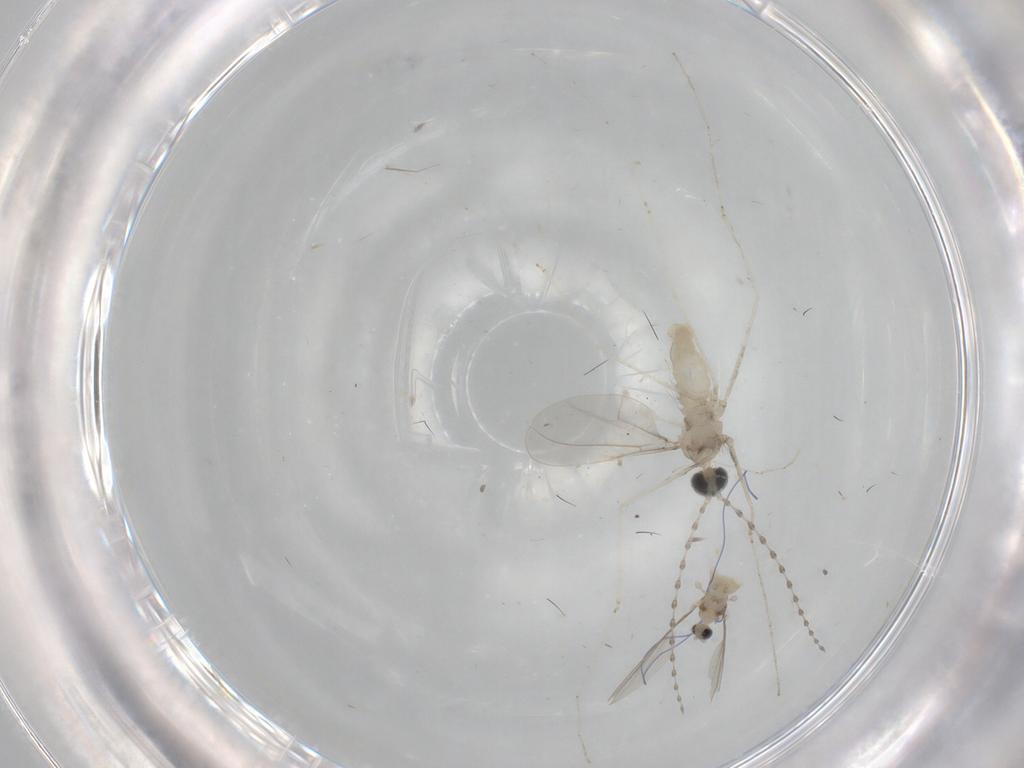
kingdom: Animalia
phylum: Arthropoda
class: Insecta
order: Diptera
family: Cecidomyiidae
